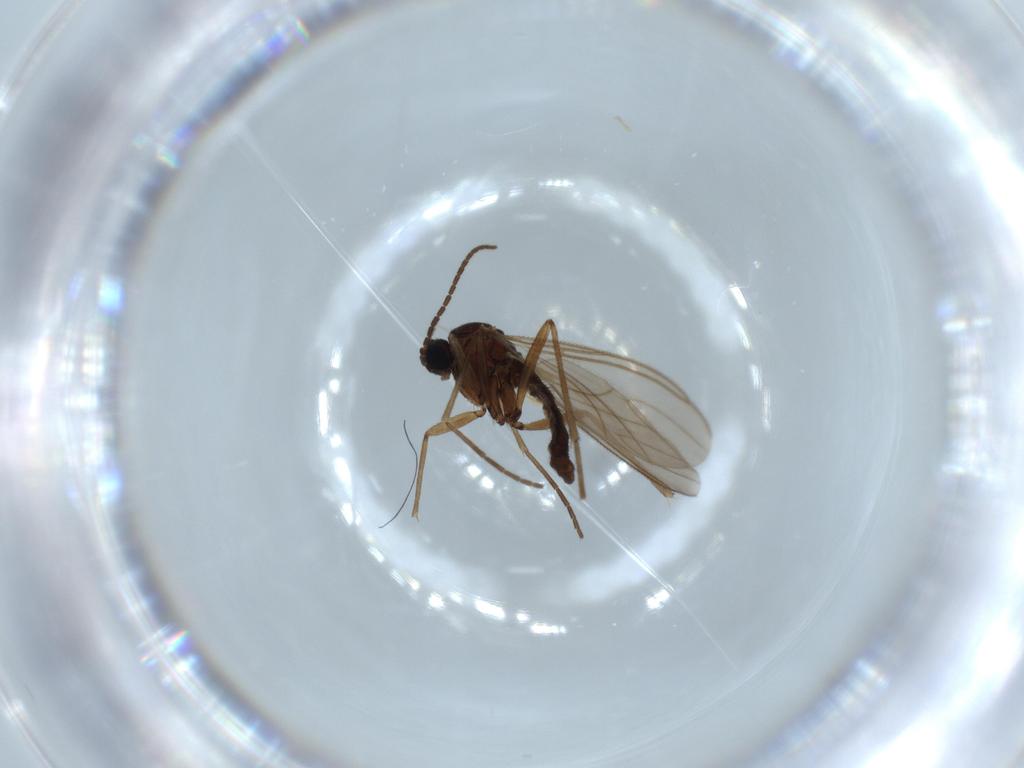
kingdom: Animalia
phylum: Arthropoda
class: Insecta
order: Diptera
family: Sciaridae
